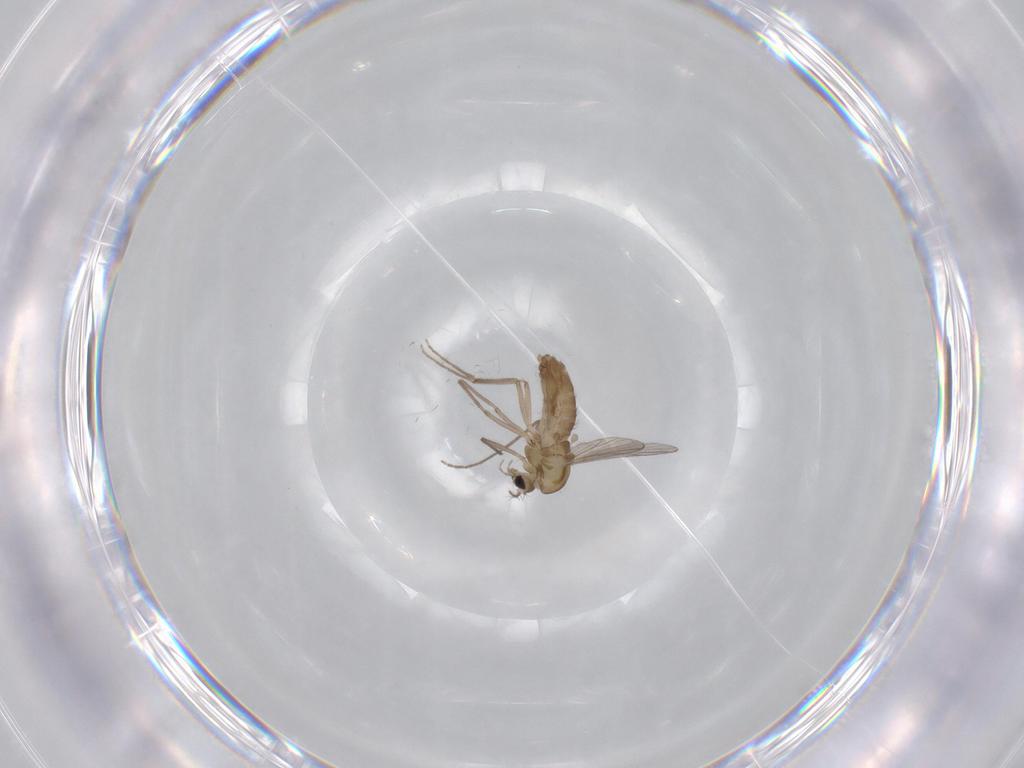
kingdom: Animalia
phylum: Arthropoda
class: Insecta
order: Diptera
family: Chironomidae
